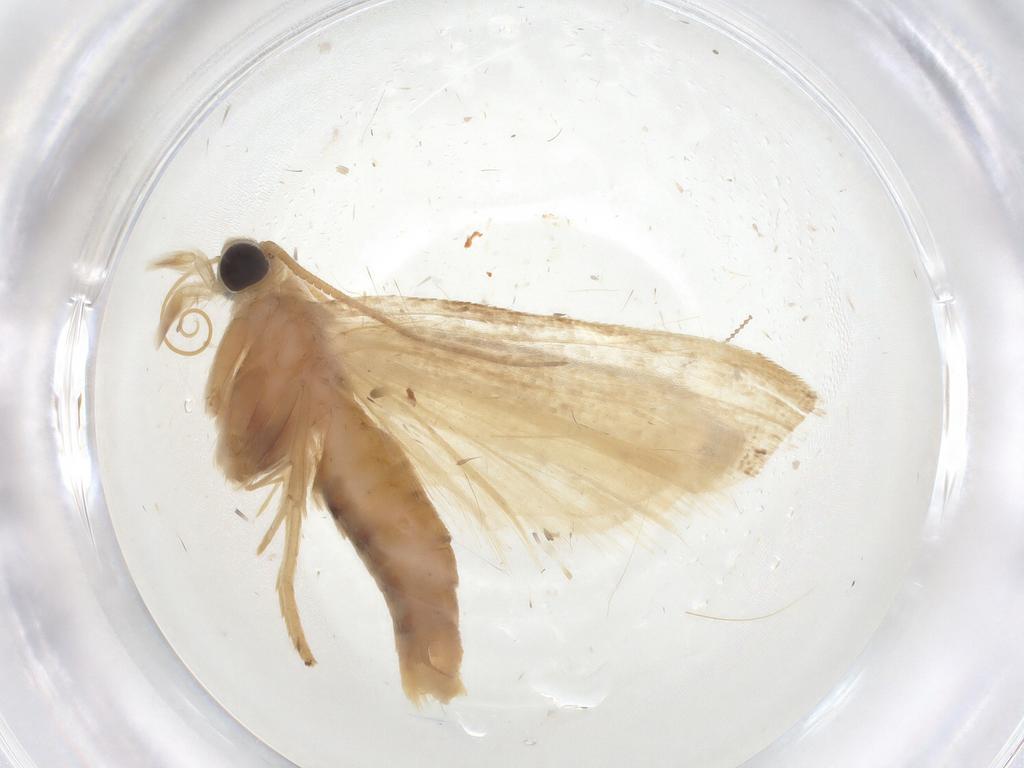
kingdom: Animalia
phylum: Arthropoda
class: Insecta
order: Lepidoptera
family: Pyralidae
